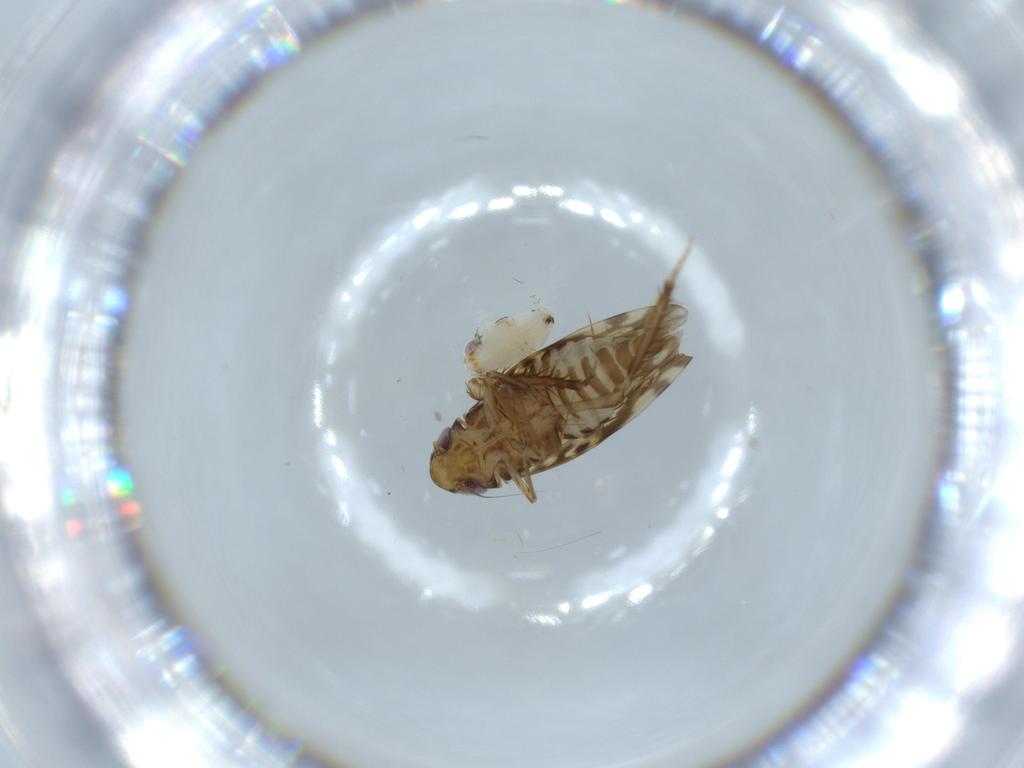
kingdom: Animalia
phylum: Arthropoda
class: Insecta
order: Hemiptera
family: Cicadellidae
